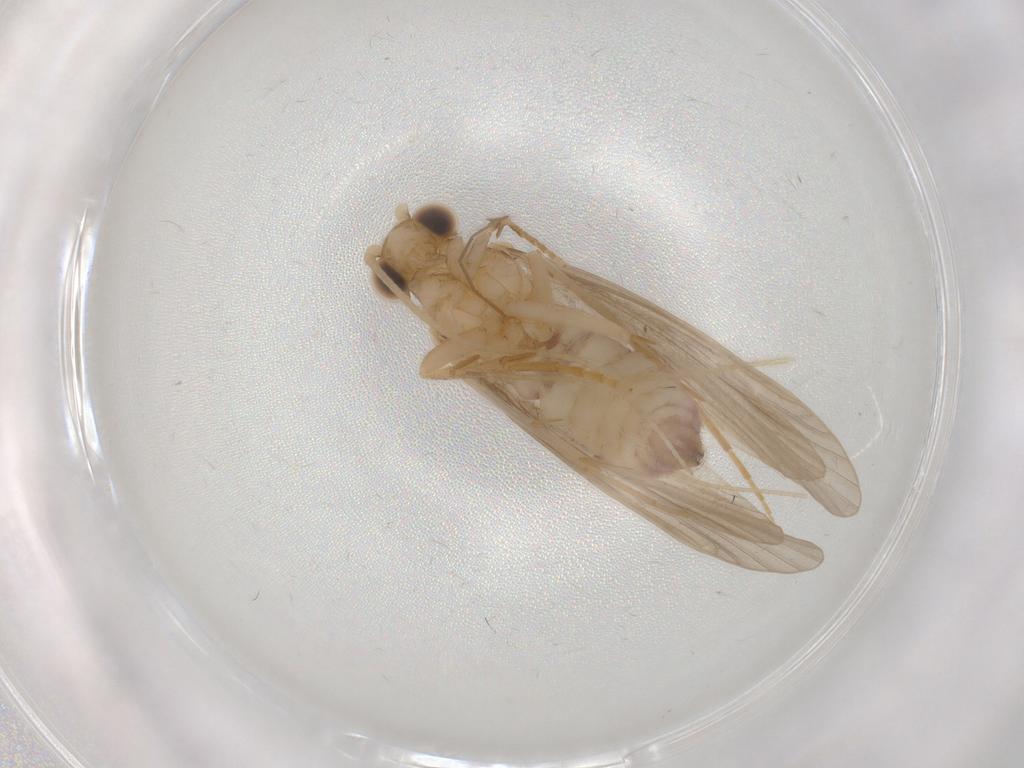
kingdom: Animalia
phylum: Arthropoda
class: Insecta
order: Trichoptera
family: Ecnomidae
